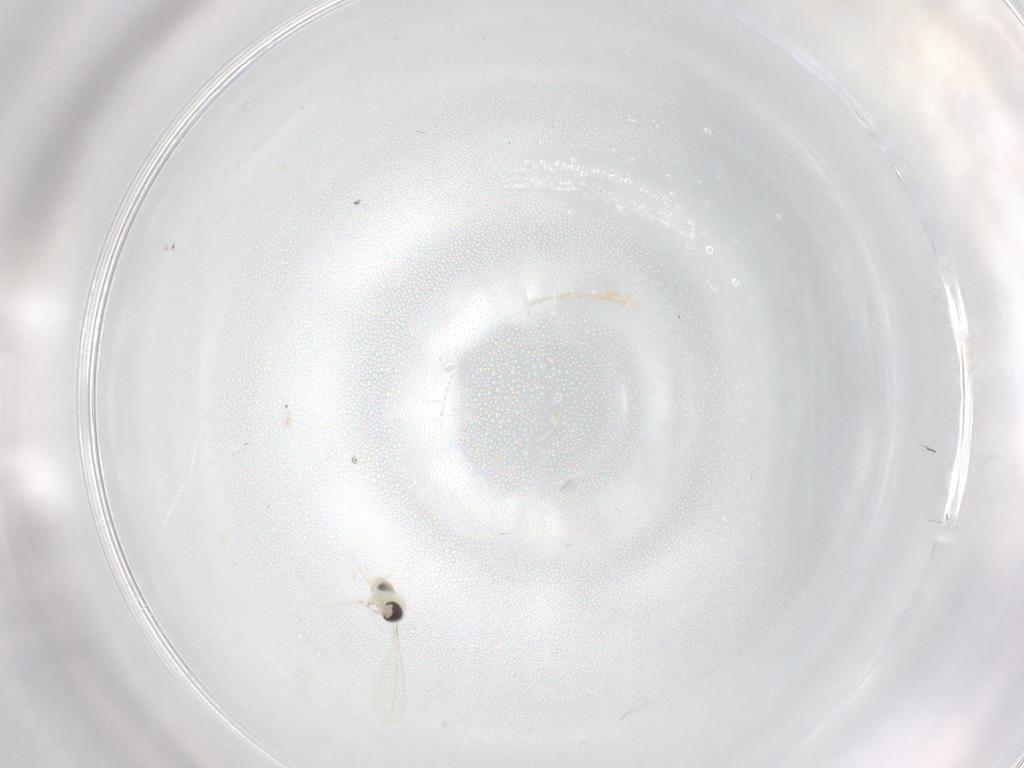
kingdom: Animalia
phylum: Arthropoda
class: Insecta
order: Diptera
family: Cecidomyiidae
